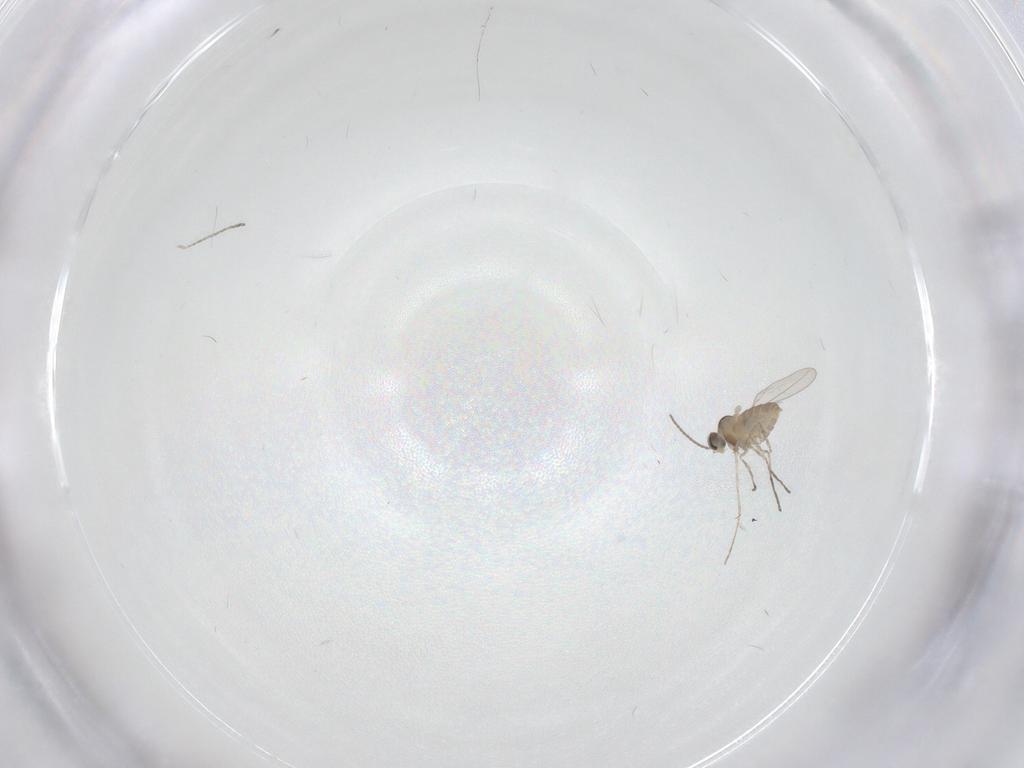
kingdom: Animalia
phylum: Arthropoda
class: Insecta
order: Diptera
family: Cecidomyiidae
